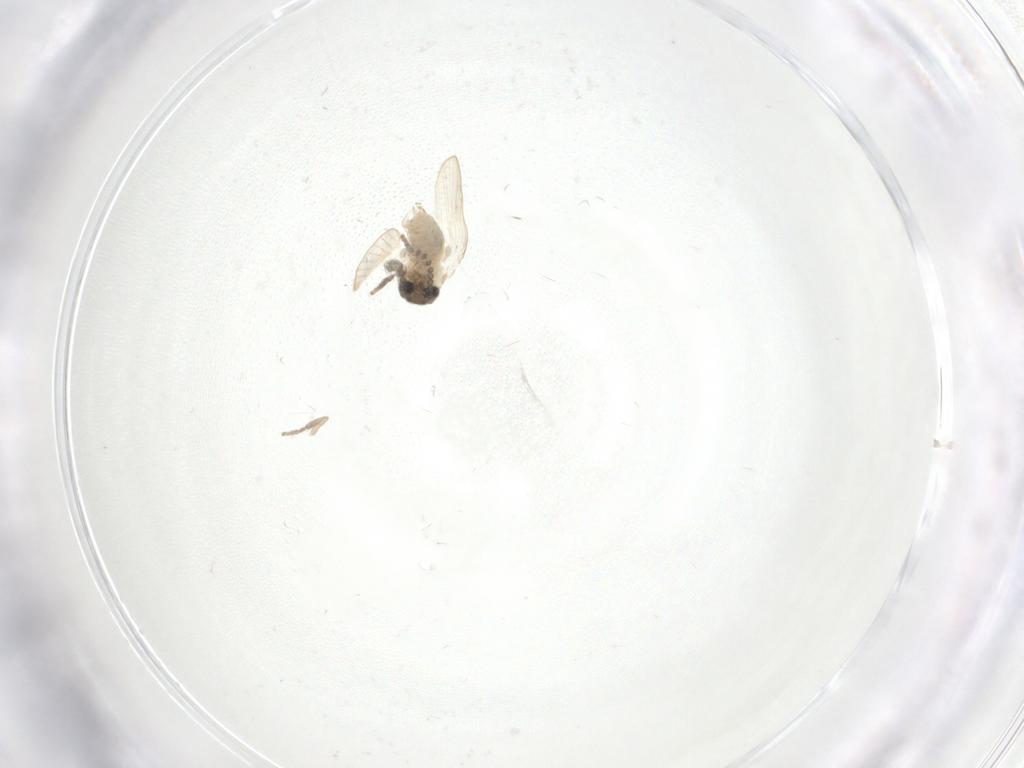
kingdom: Animalia
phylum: Arthropoda
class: Insecta
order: Diptera
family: Psychodidae
